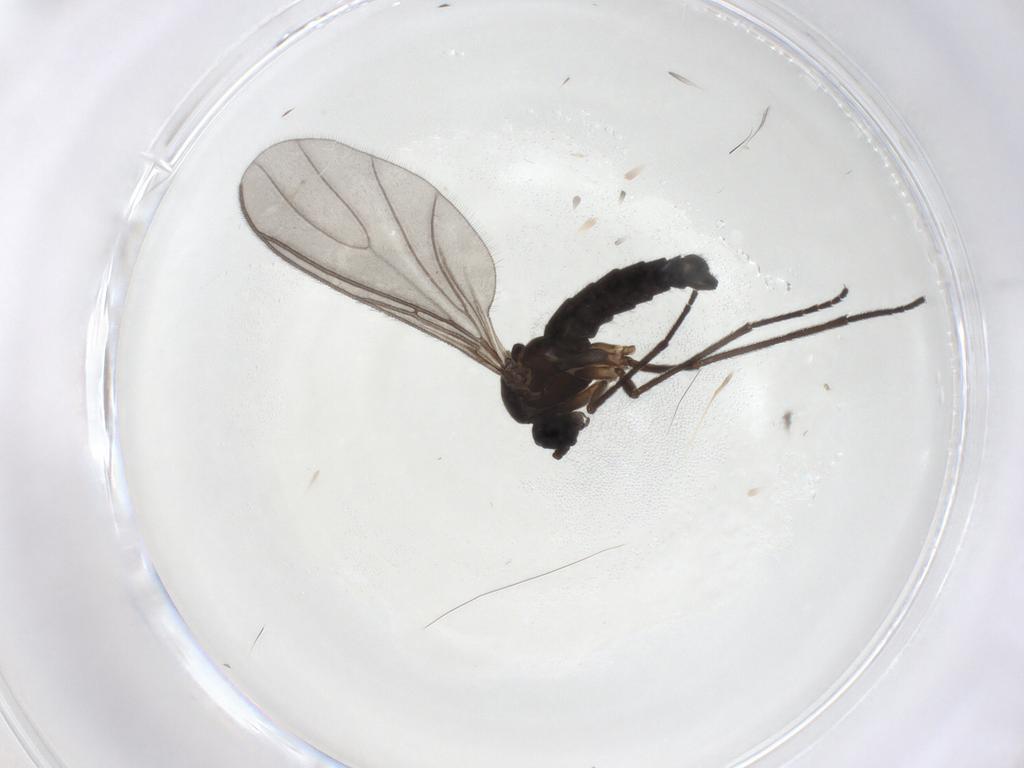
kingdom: Animalia
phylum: Arthropoda
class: Insecta
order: Diptera
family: Sciaridae
